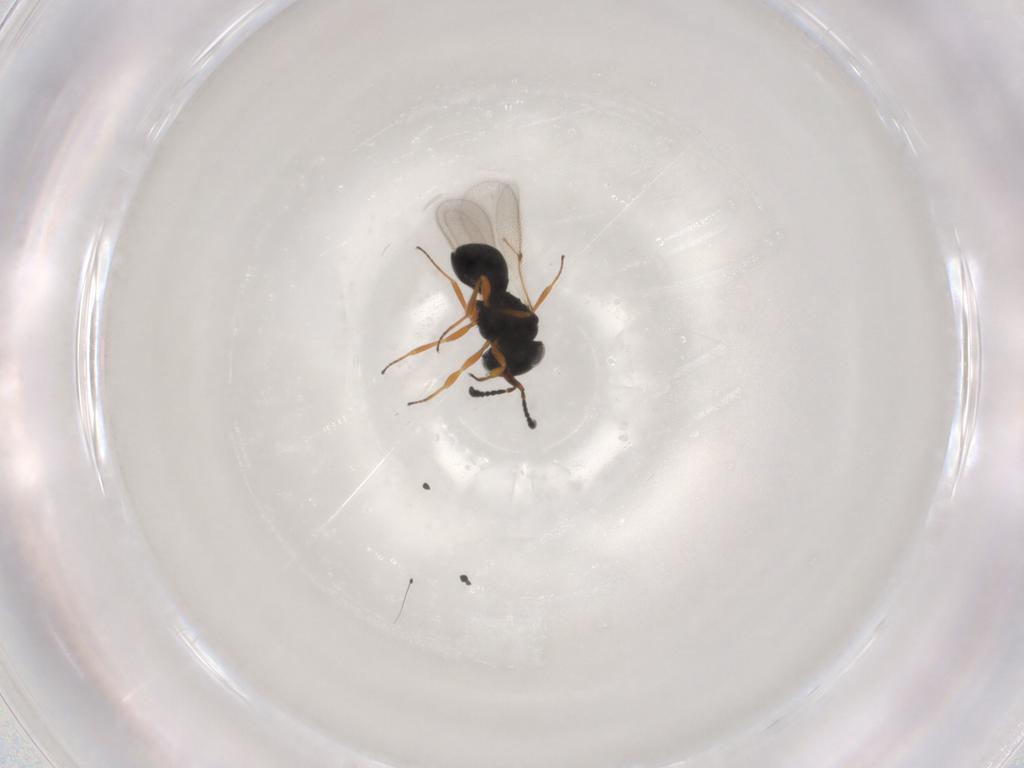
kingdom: Animalia
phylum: Arthropoda
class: Insecta
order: Hymenoptera
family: Scelionidae
